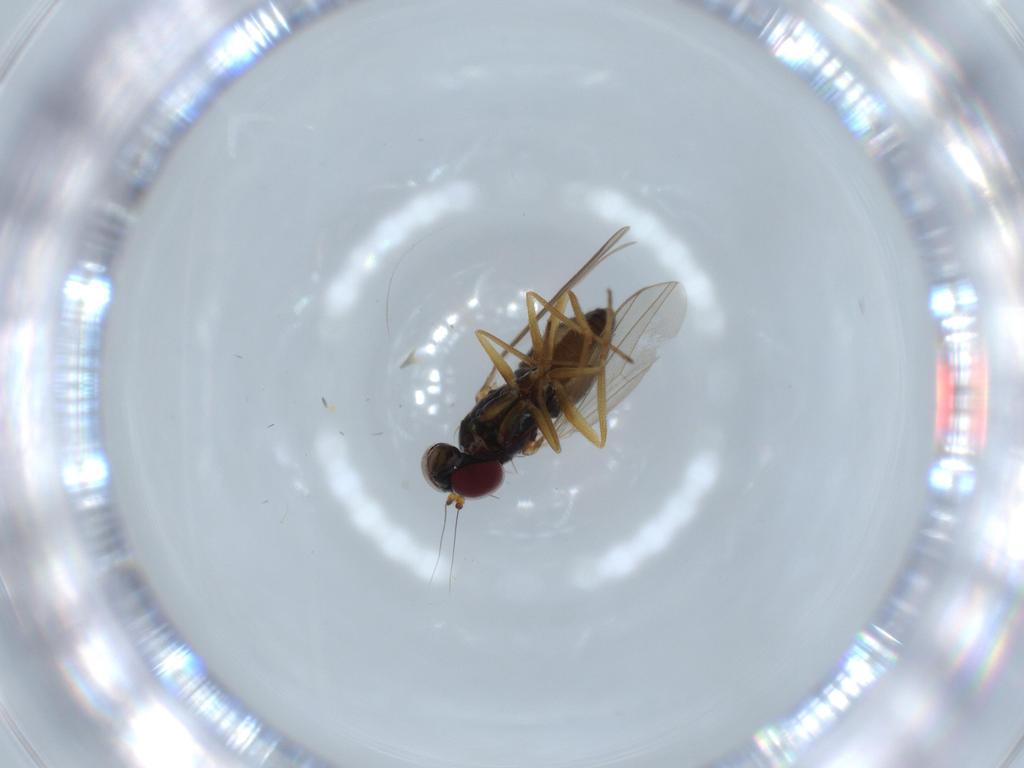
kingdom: Animalia
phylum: Arthropoda
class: Insecta
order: Diptera
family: Dolichopodidae
